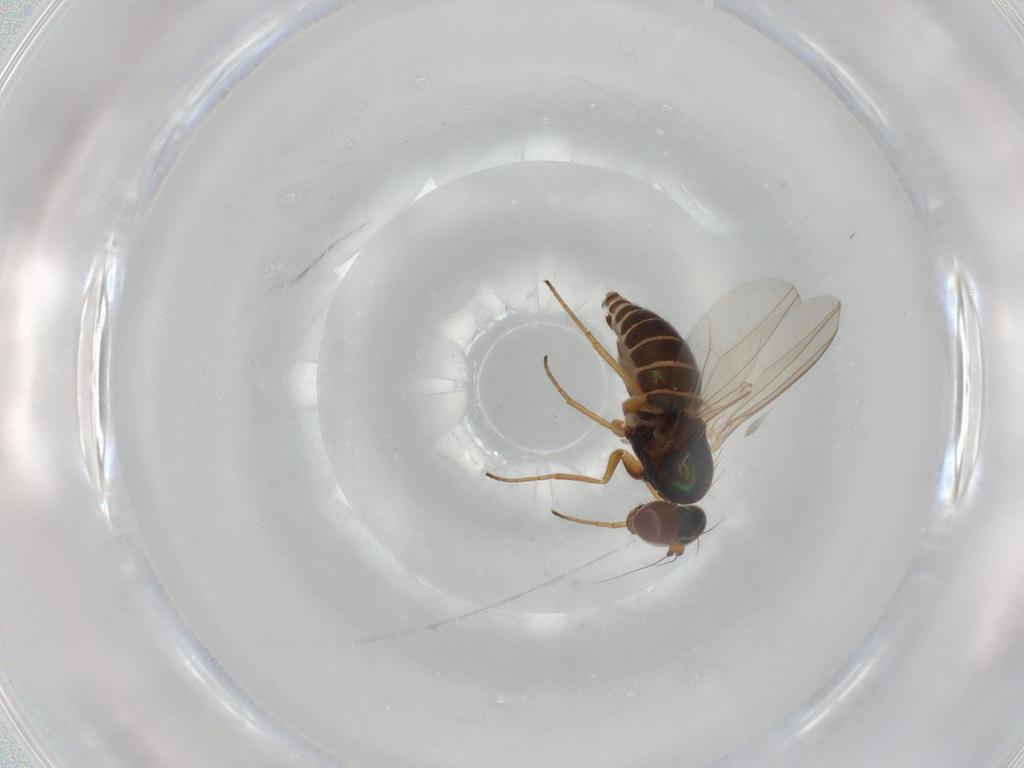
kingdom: Animalia
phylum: Arthropoda
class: Insecta
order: Diptera
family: Dolichopodidae
